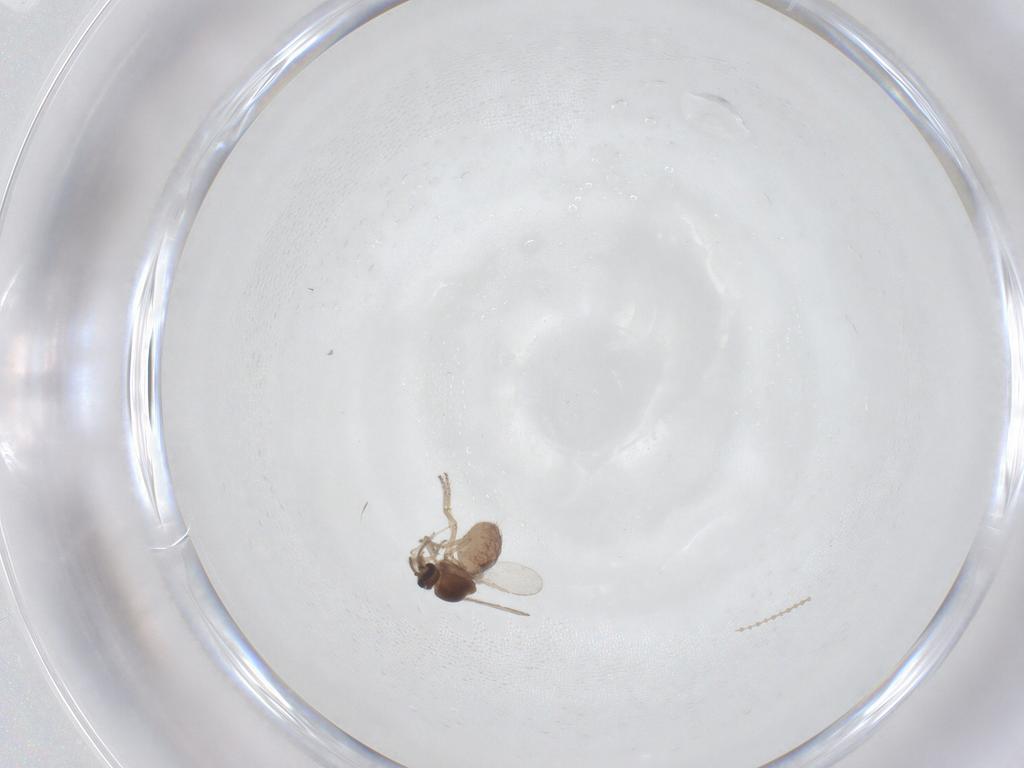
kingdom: Animalia
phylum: Arthropoda
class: Insecta
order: Diptera
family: Ceratopogonidae
